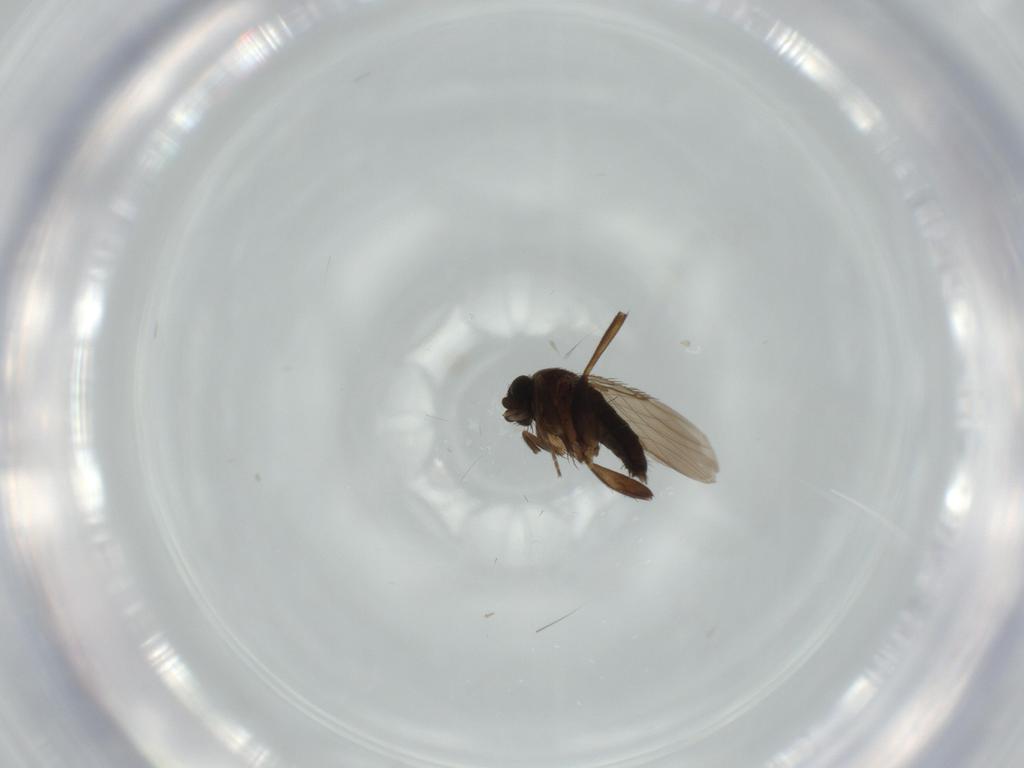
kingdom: Animalia
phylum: Arthropoda
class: Insecta
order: Diptera
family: Phoridae
